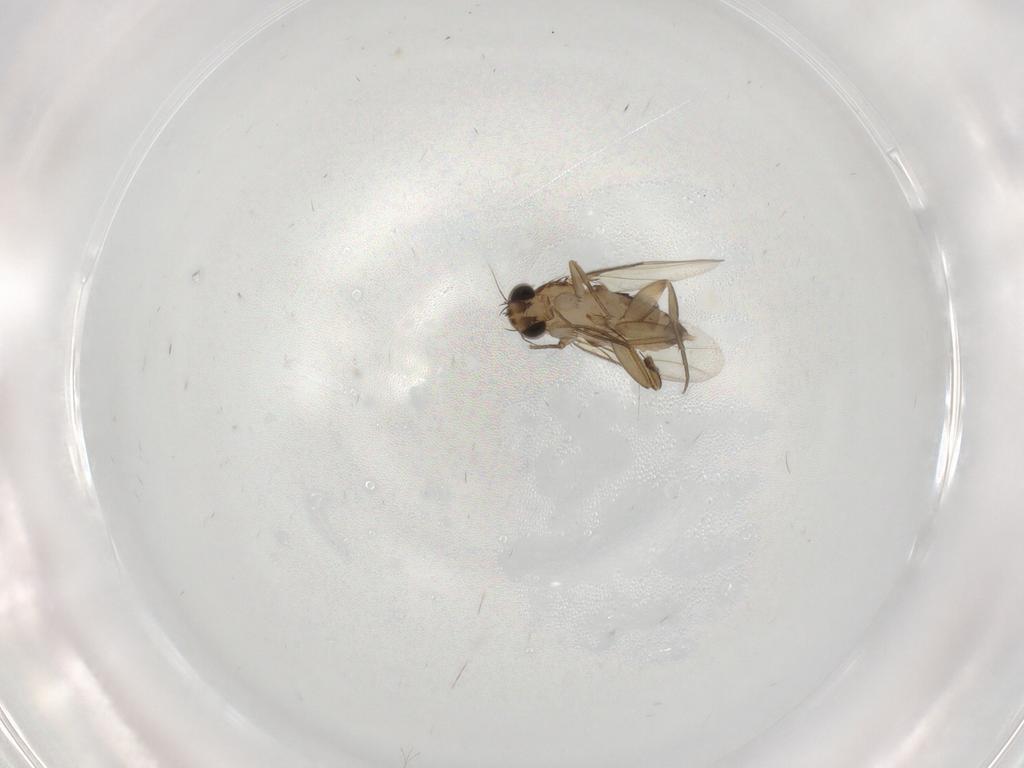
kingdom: Animalia
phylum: Arthropoda
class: Insecta
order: Diptera
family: Phoridae
